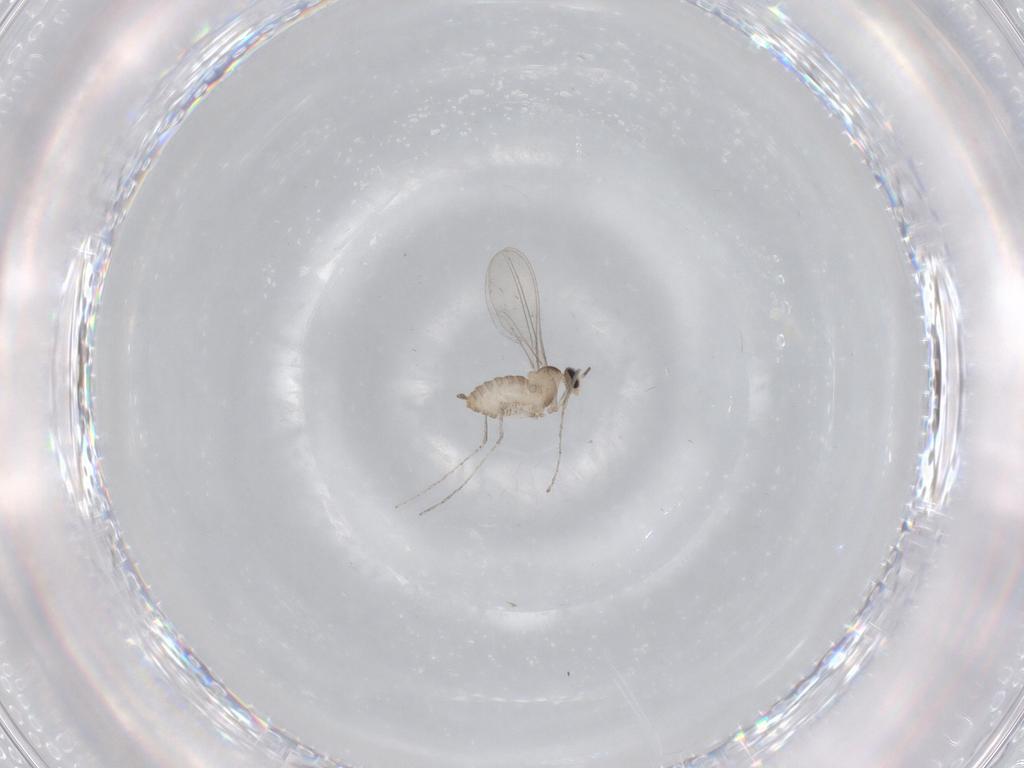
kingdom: Animalia
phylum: Arthropoda
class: Insecta
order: Diptera
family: Cecidomyiidae
